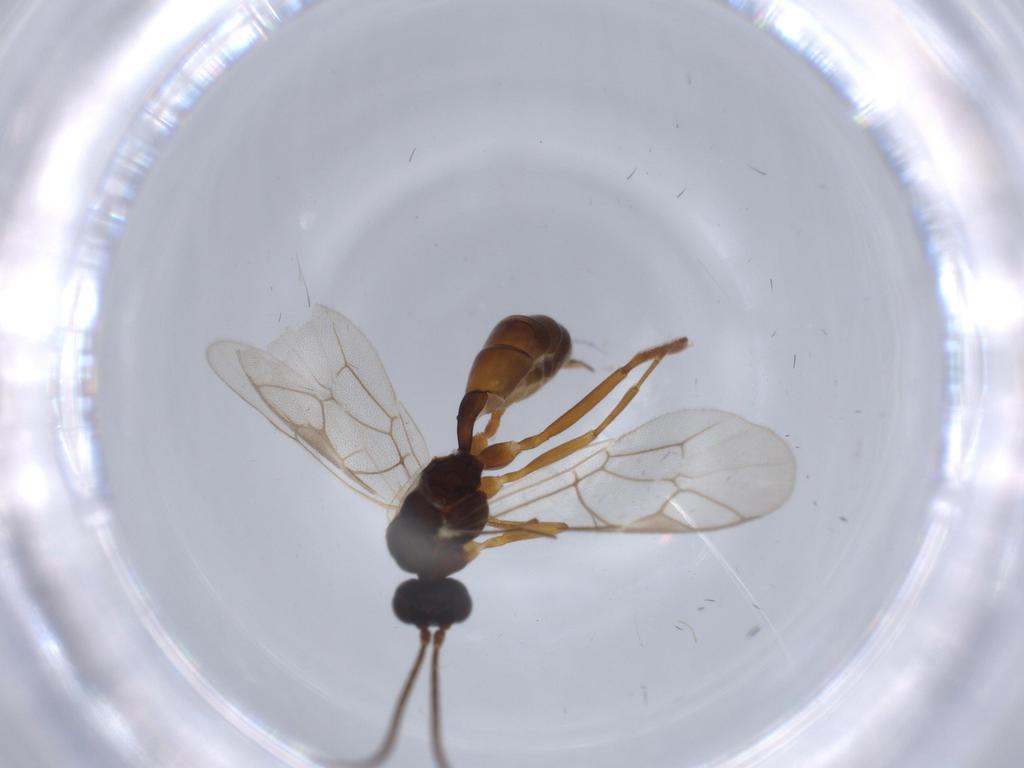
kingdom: Animalia
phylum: Arthropoda
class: Insecta
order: Hymenoptera
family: Ichneumonidae
